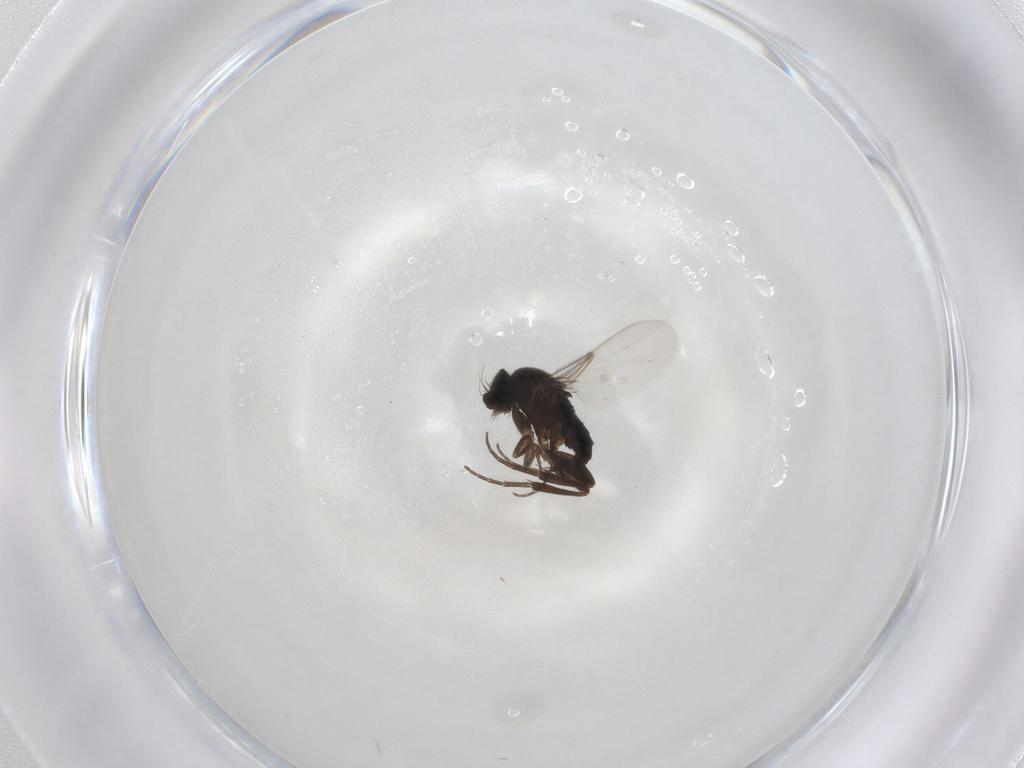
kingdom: Animalia
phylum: Arthropoda
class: Insecta
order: Diptera
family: Phoridae
